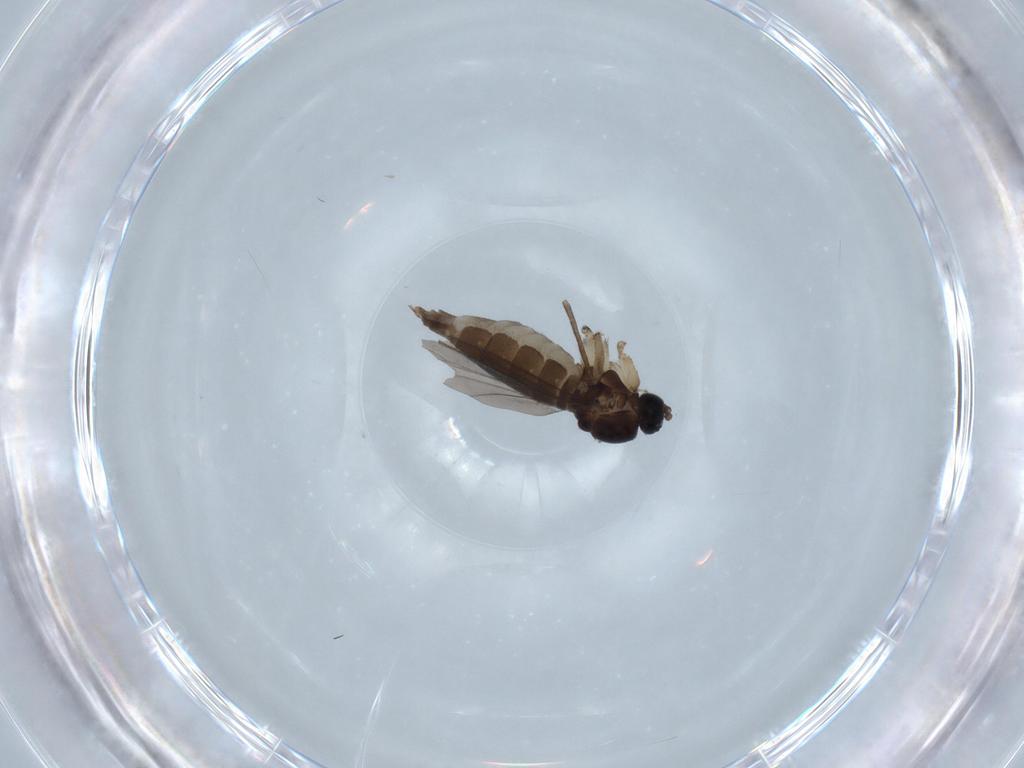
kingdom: Animalia
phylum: Arthropoda
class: Insecta
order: Diptera
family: Sciaridae
